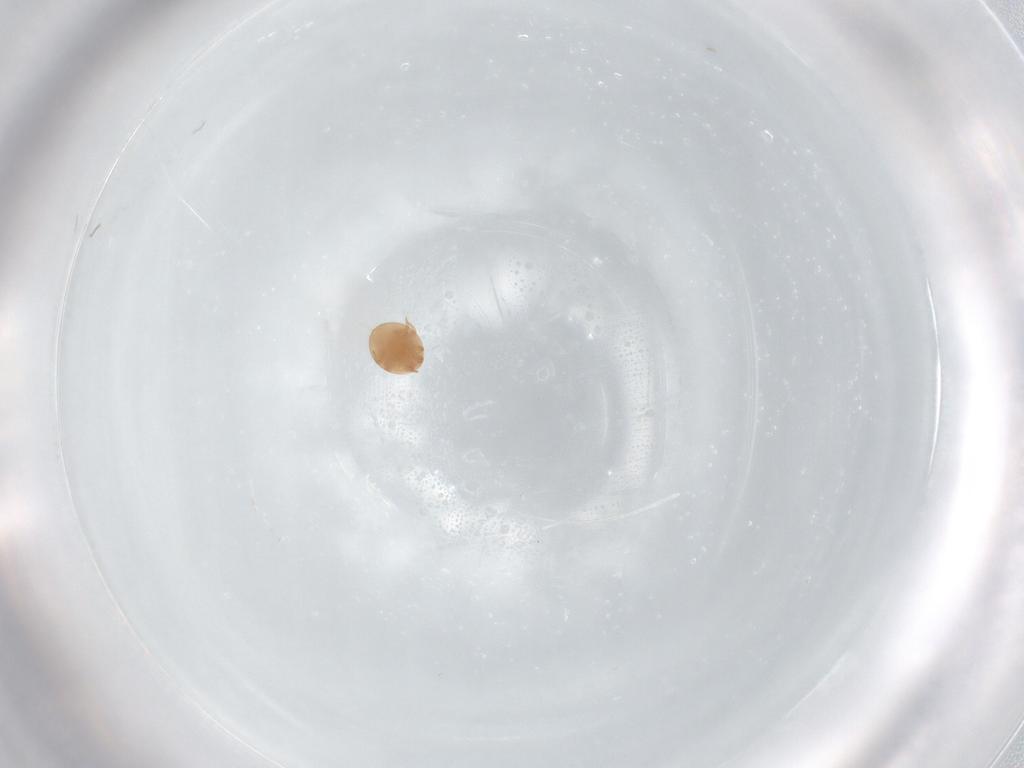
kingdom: Animalia
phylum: Arthropoda
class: Arachnida
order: Mesostigmata
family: Trematuridae
